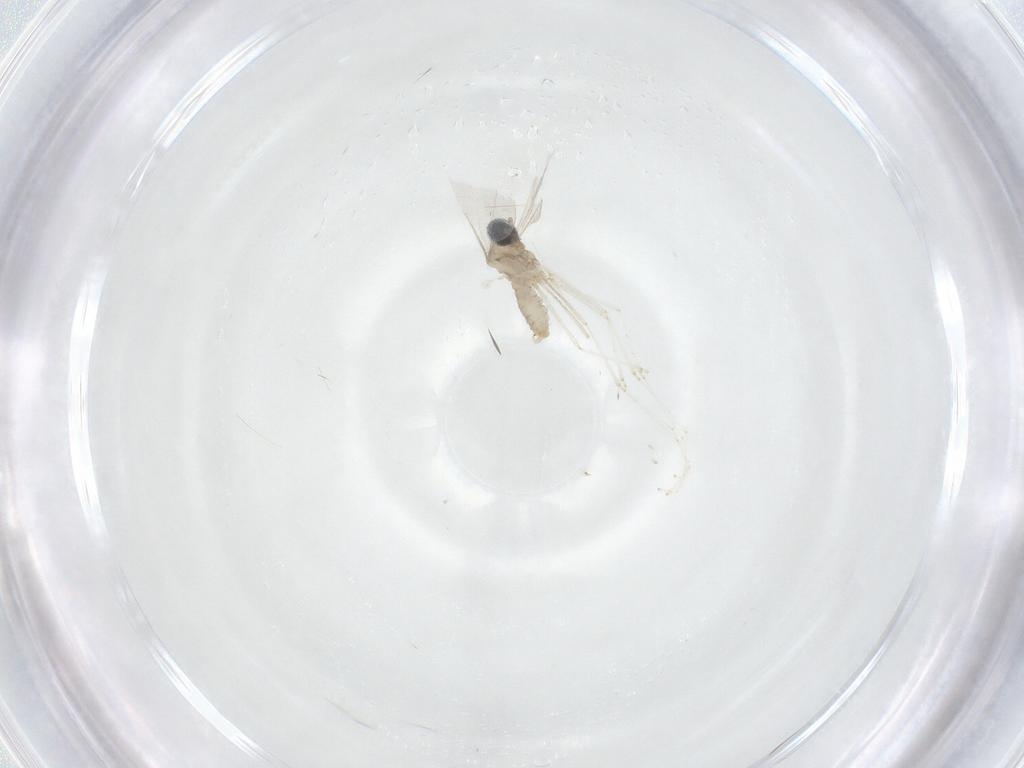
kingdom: Animalia
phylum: Arthropoda
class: Insecta
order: Diptera
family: Cecidomyiidae
